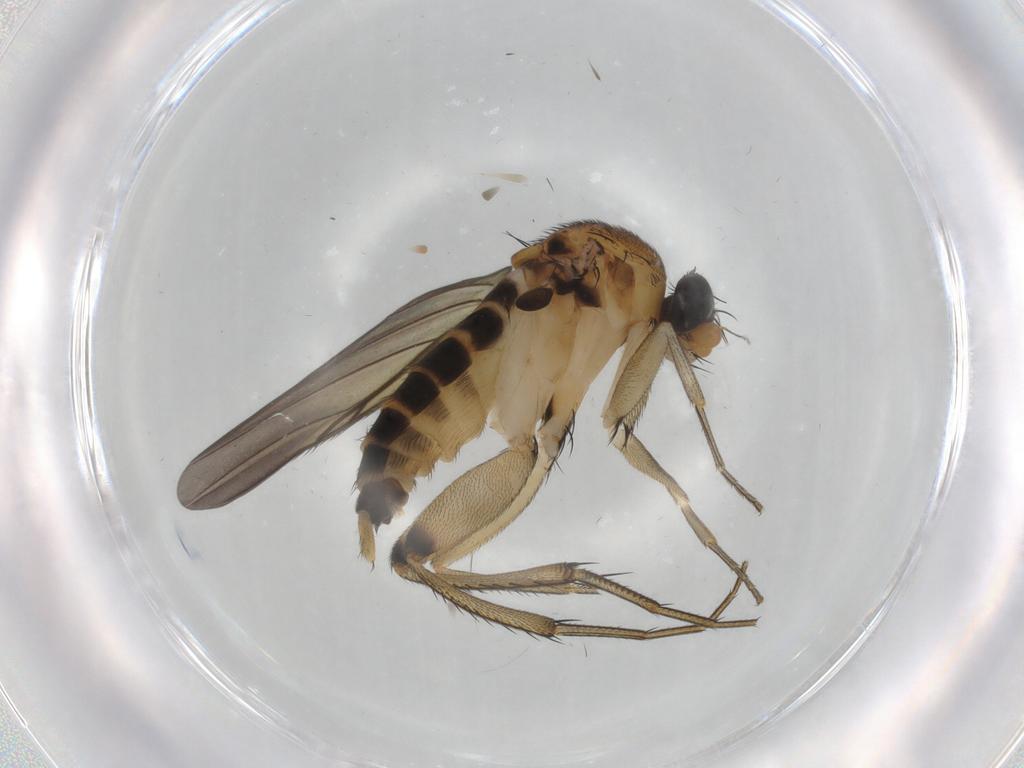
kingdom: Animalia
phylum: Arthropoda
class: Insecta
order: Diptera
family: Phoridae
